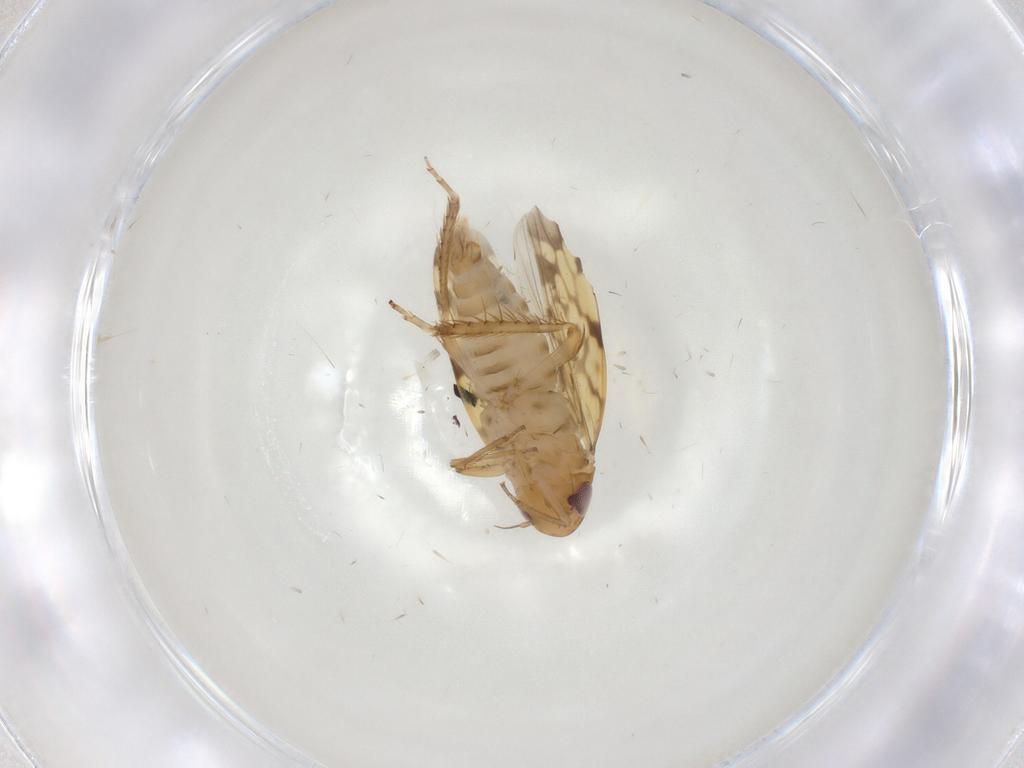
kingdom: Animalia
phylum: Arthropoda
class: Insecta
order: Hemiptera
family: Cicadellidae
